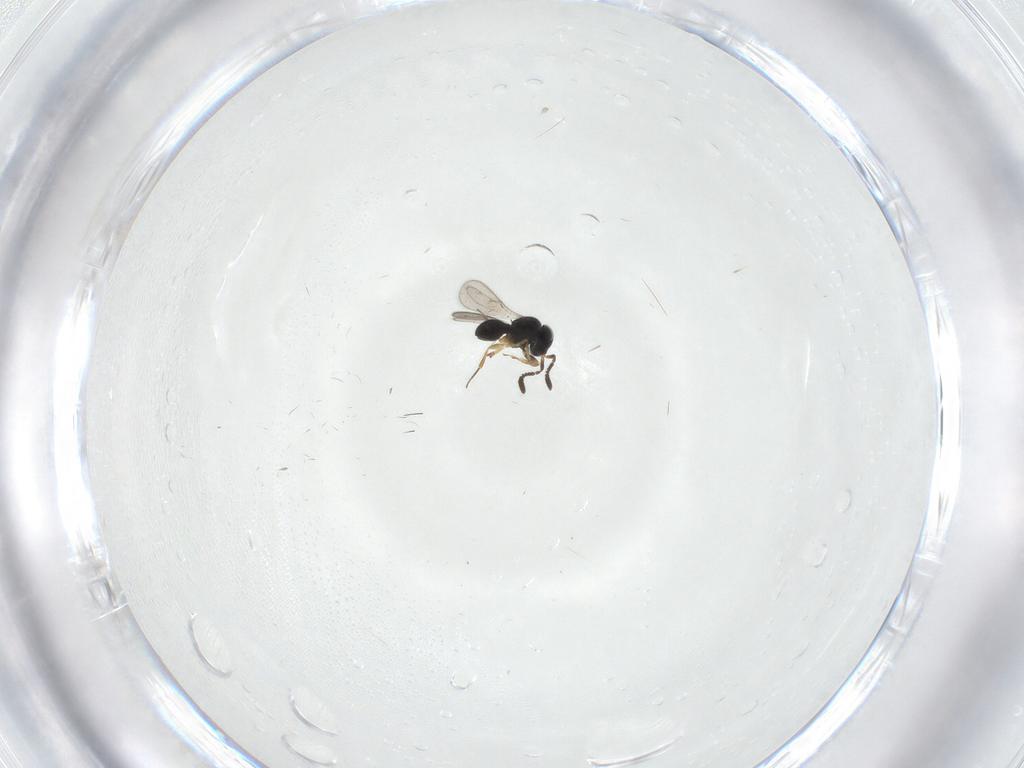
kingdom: Animalia
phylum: Arthropoda
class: Insecta
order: Hymenoptera
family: Scelionidae
